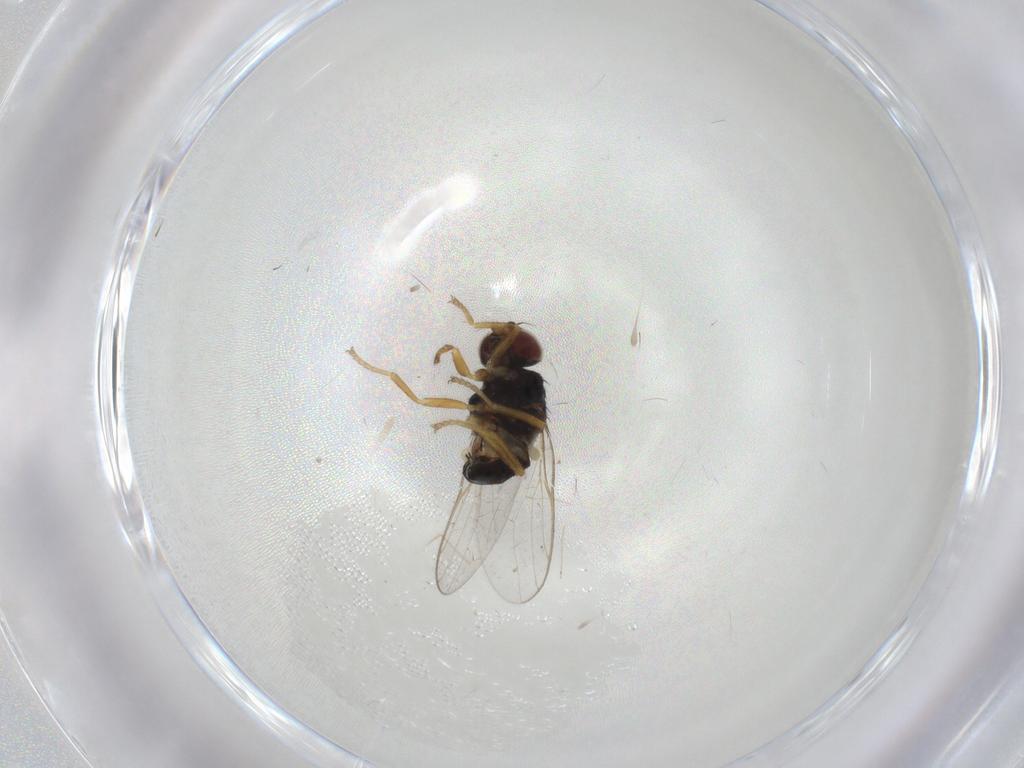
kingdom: Animalia
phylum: Arthropoda
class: Insecta
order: Diptera
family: Chloropidae
